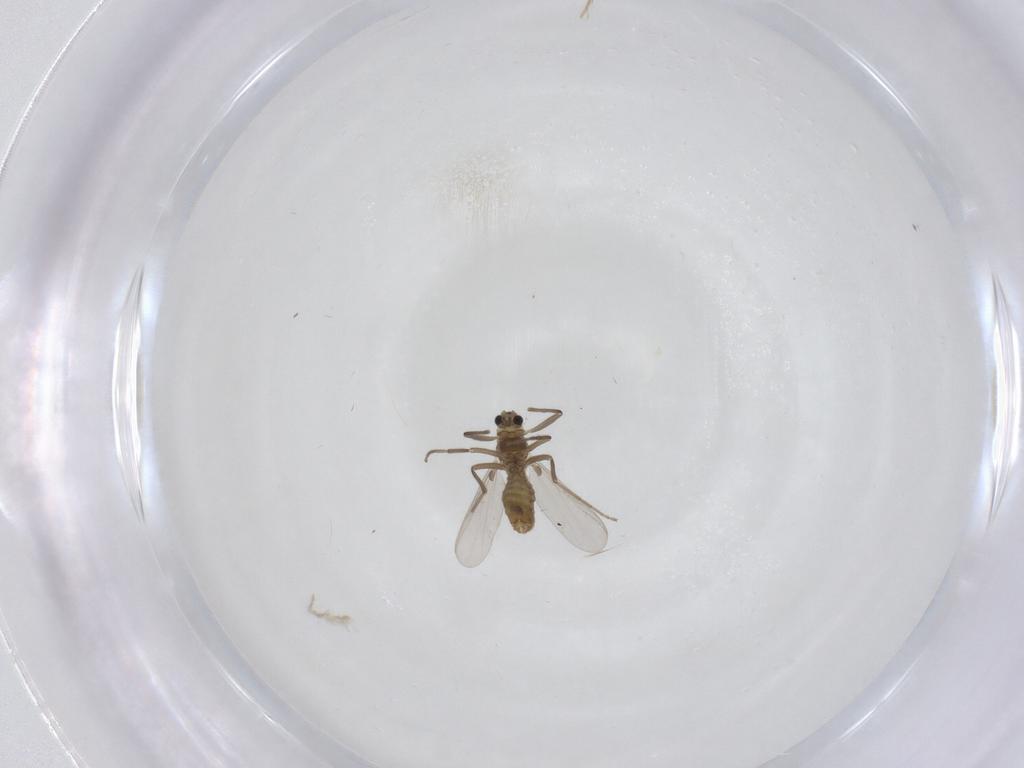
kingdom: Animalia
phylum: Arthropoda
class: Insecta
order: Diptera
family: Chironomidae
